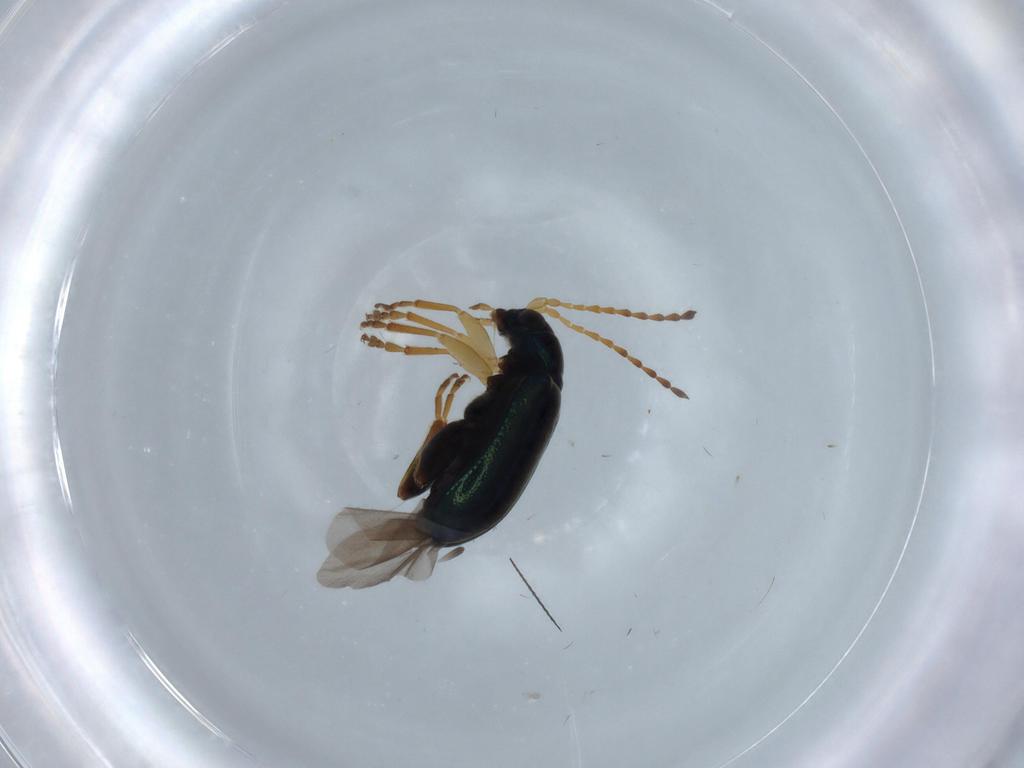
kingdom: Animalia
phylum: Arthropoda
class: Insecta
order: Coleoptera
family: Chrysomelidae
